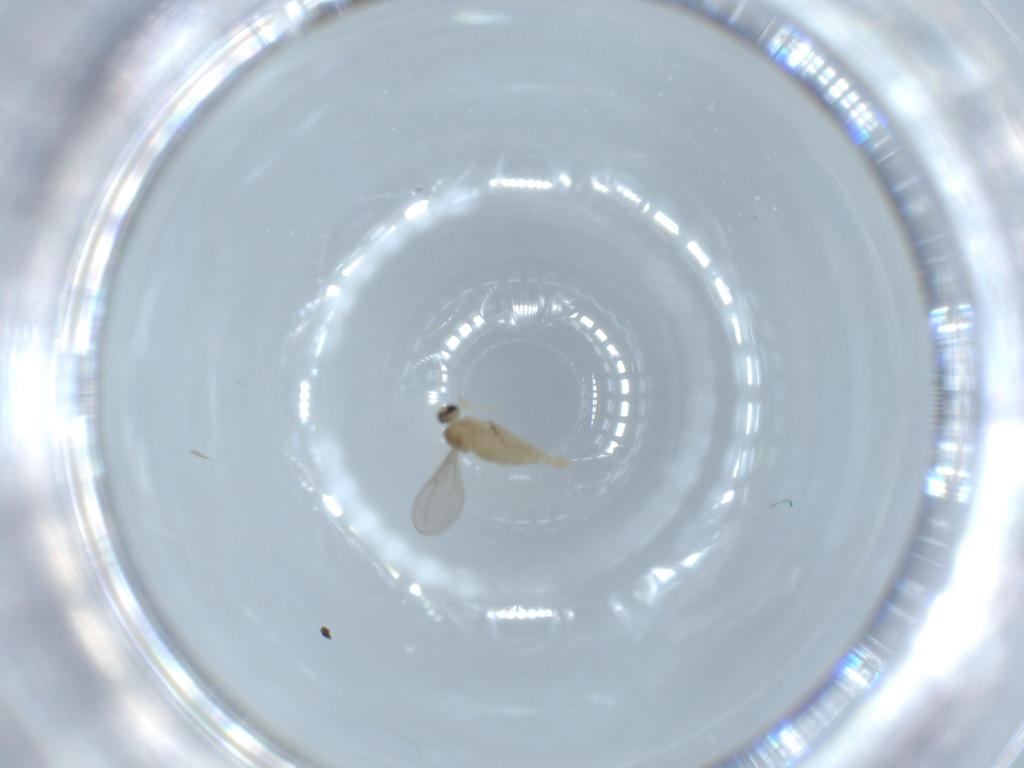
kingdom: Animalia
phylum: Arthropoda
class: Insecta
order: Diptera
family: Cecidomyiidae
